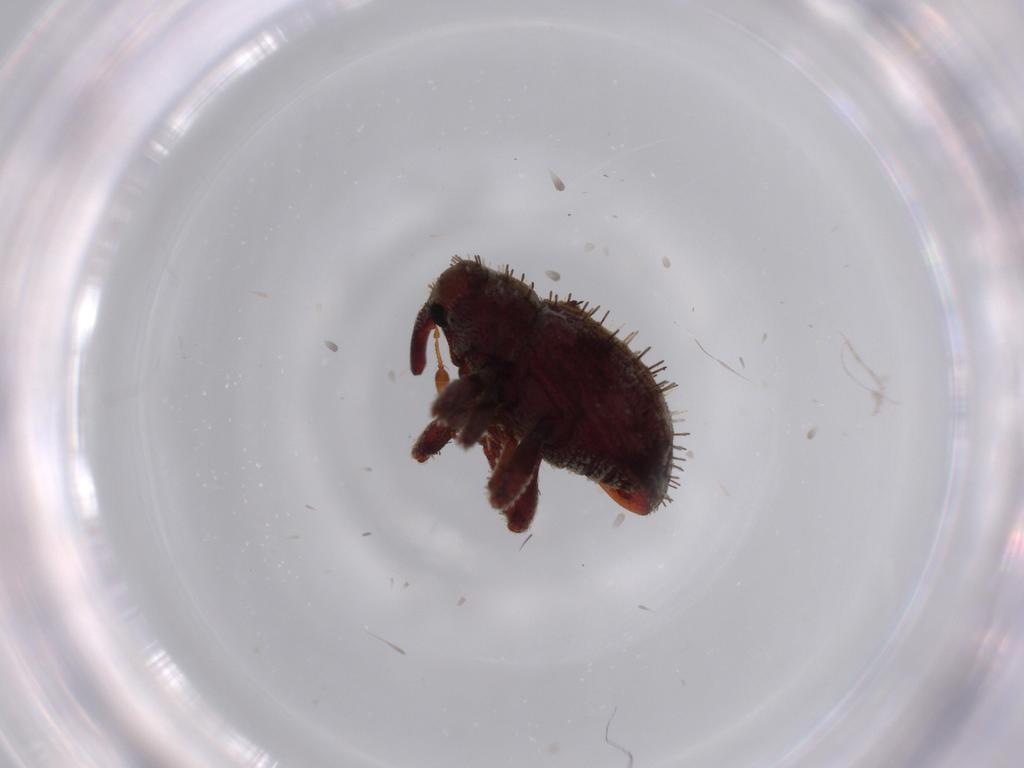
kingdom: Animalia
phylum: Arthropoda
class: Insecta
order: Coleoptera
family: Curculionidae
